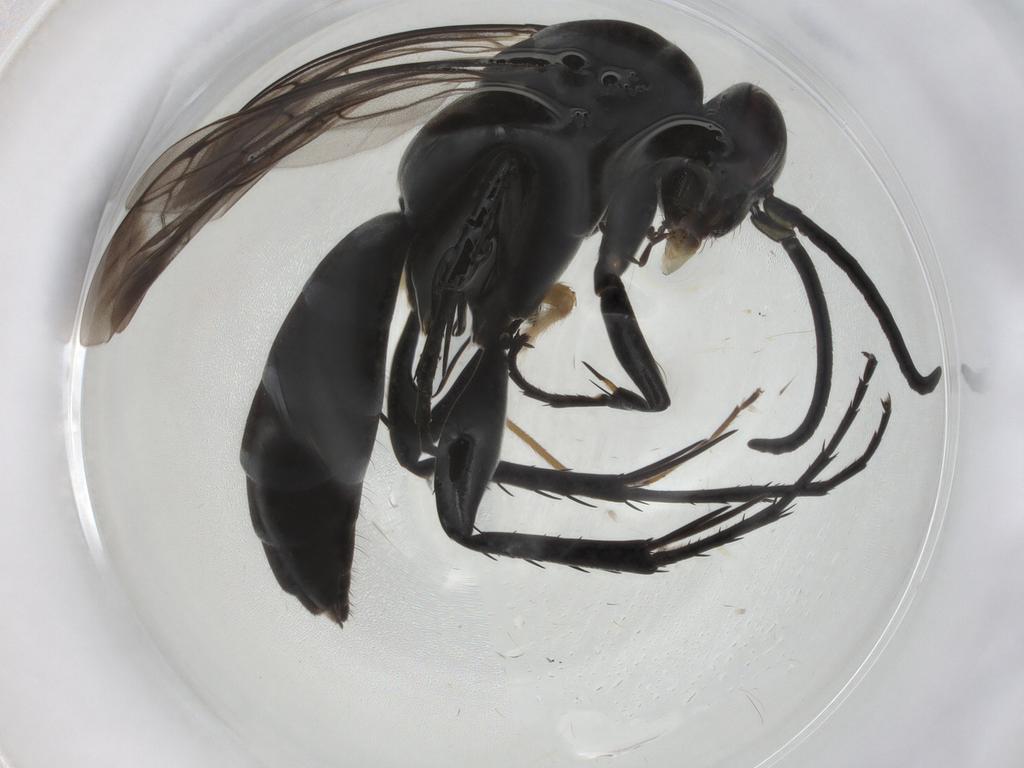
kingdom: Animalia
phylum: Arthropoda
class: Insecta
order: Hymenoptera
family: Pompilidae
